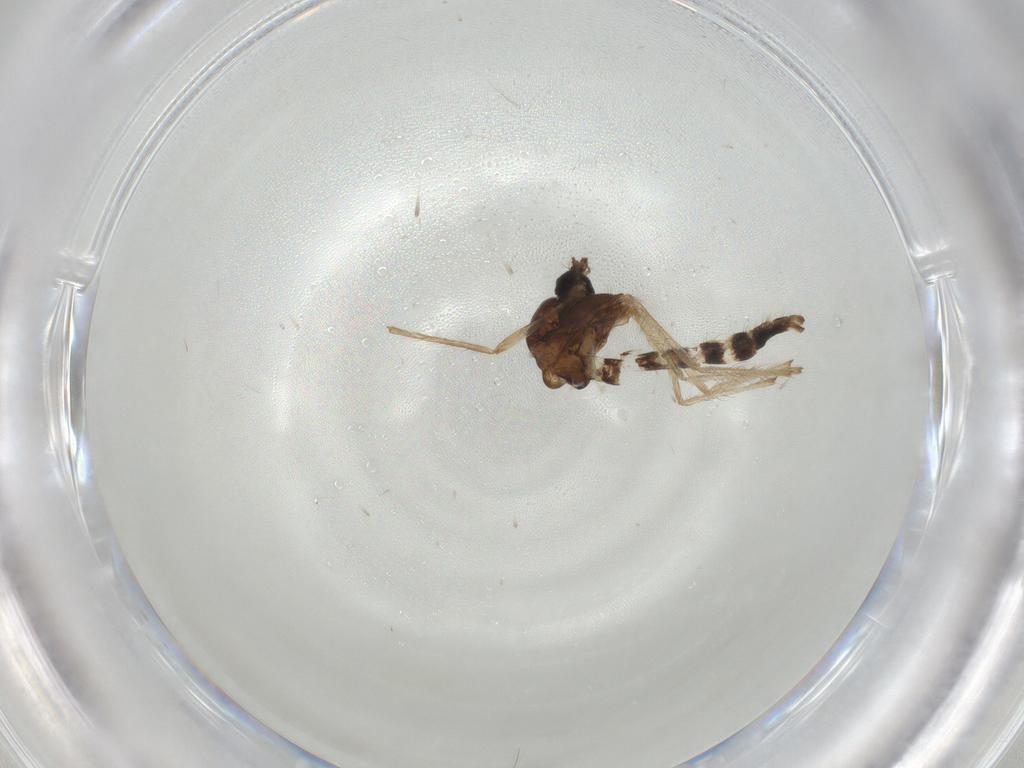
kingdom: Animalia
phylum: Arthropoda
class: Insecta
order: Diptera
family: Chironomidae
